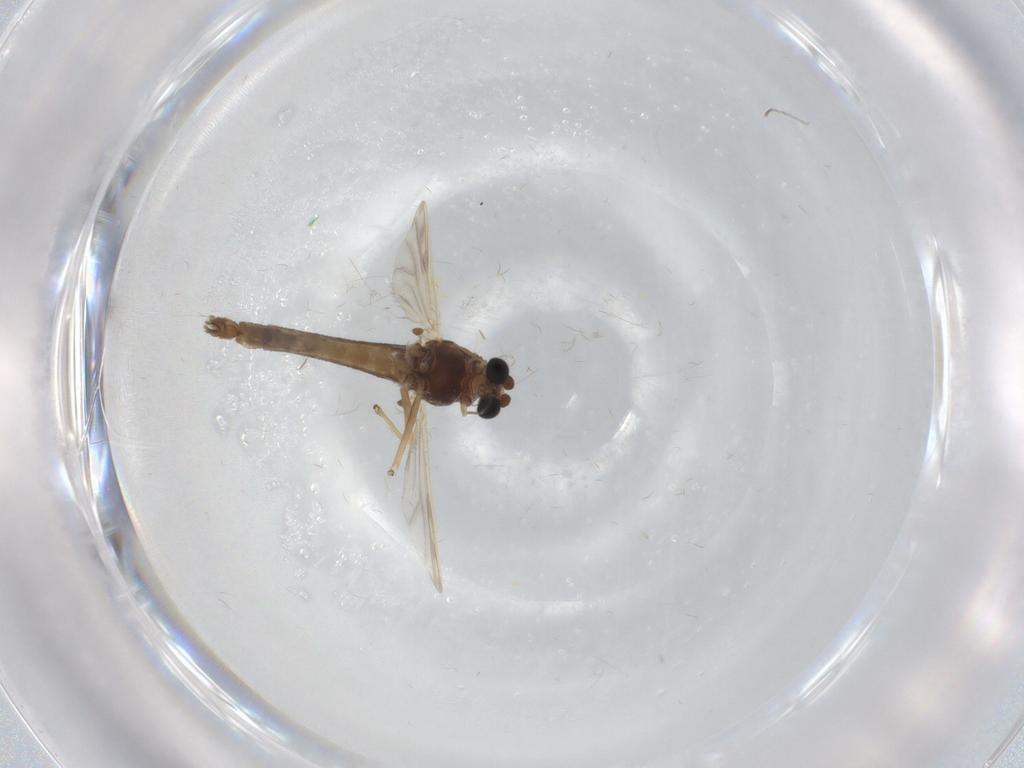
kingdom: Animalia
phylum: Arthropoda
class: Insecta
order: Diptera
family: Chironomidae
